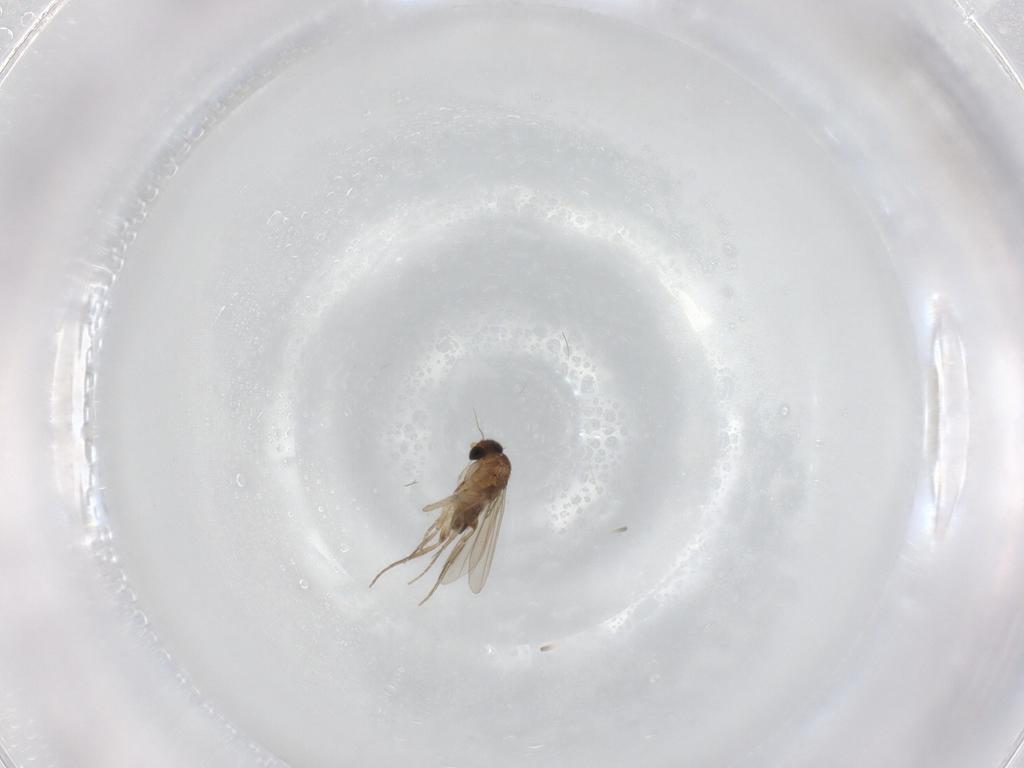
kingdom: Animalia
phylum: Arthropoda
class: Insecta
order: Diptera
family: Phoridae
